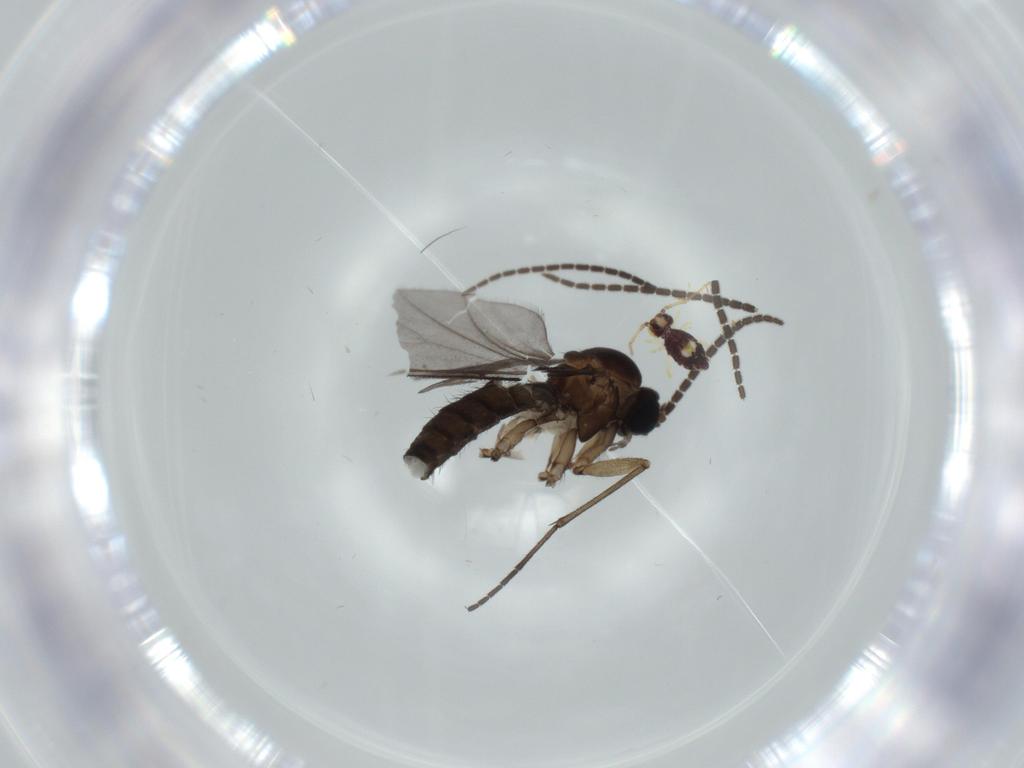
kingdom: Animalia
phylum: Arthropoda
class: Insecta
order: Diptera
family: Sciaridae
